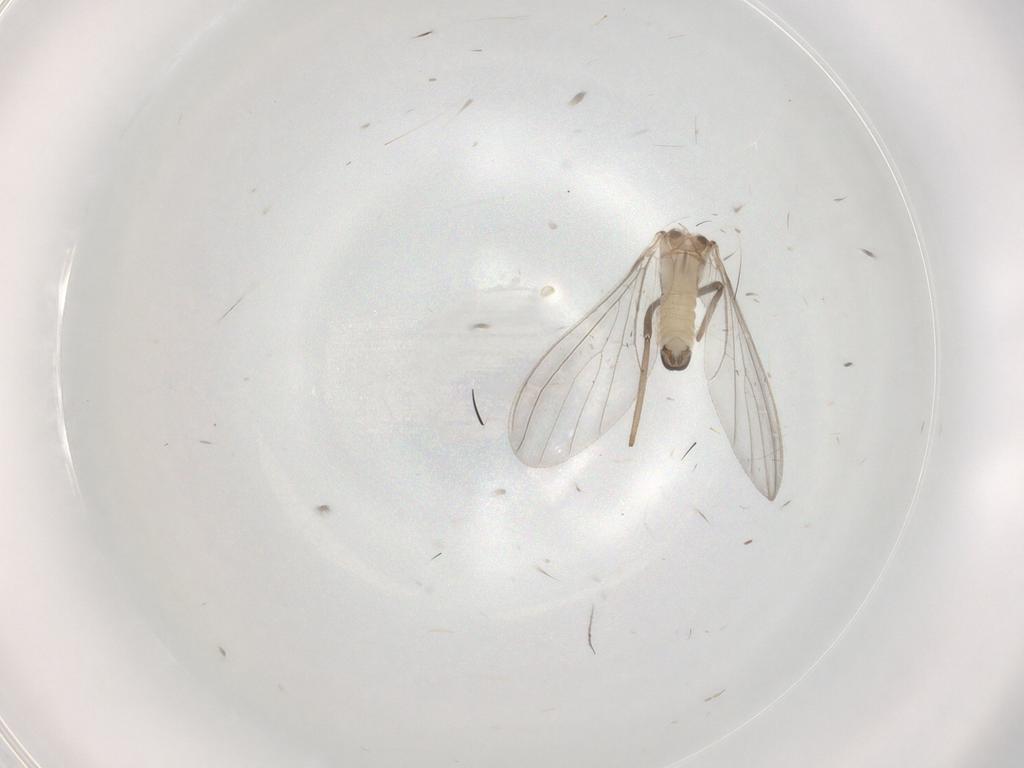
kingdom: Animalia
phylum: Arthropoda
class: Insecta
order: Neuroptera
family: Coniopterygidae
